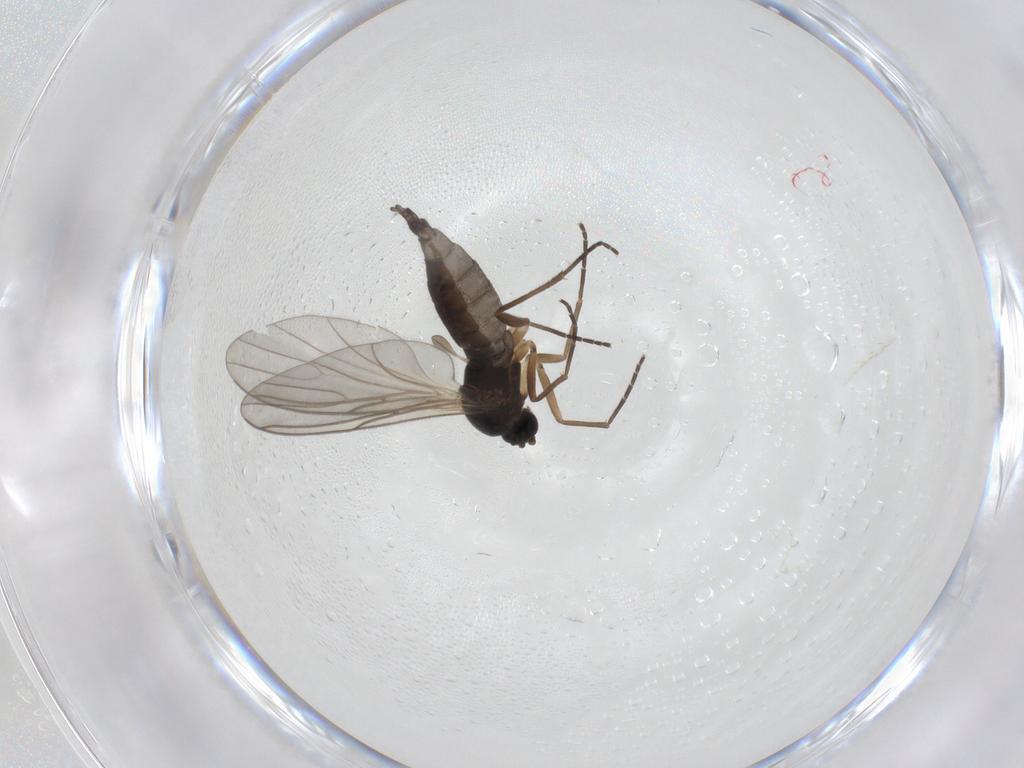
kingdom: Animalia
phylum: Arthropoda
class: Insecta
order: Diptera
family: Sciaridae
